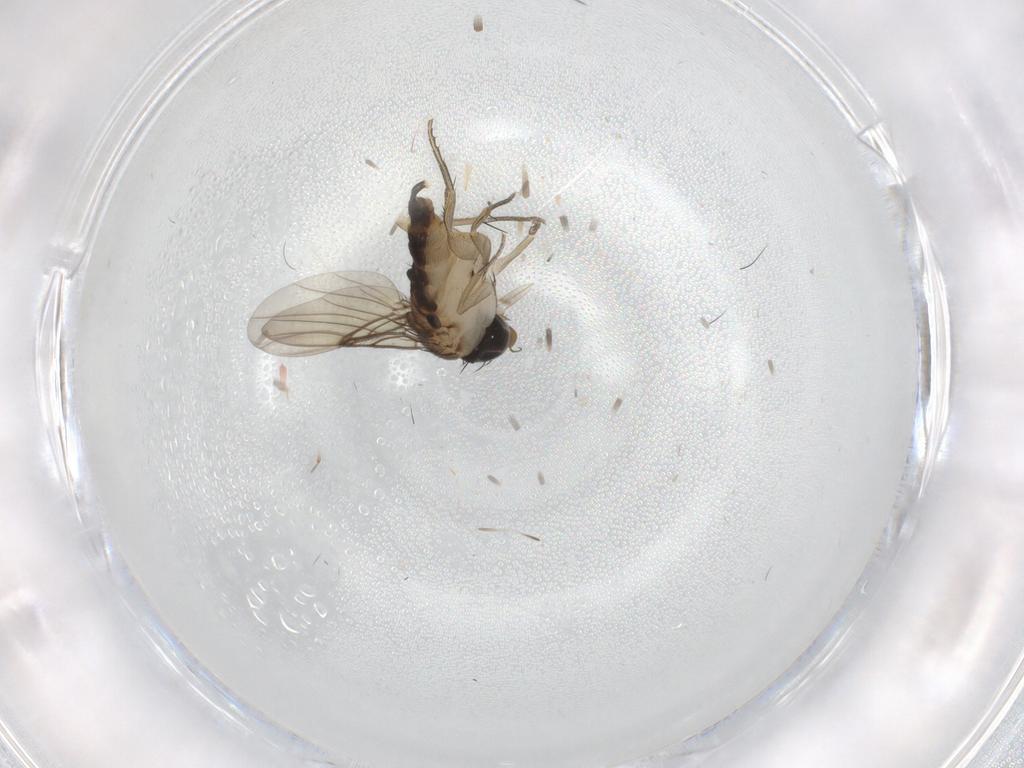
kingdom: Animalia
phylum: Arthropoda
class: Insecta
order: Diptera
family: Phoridae
